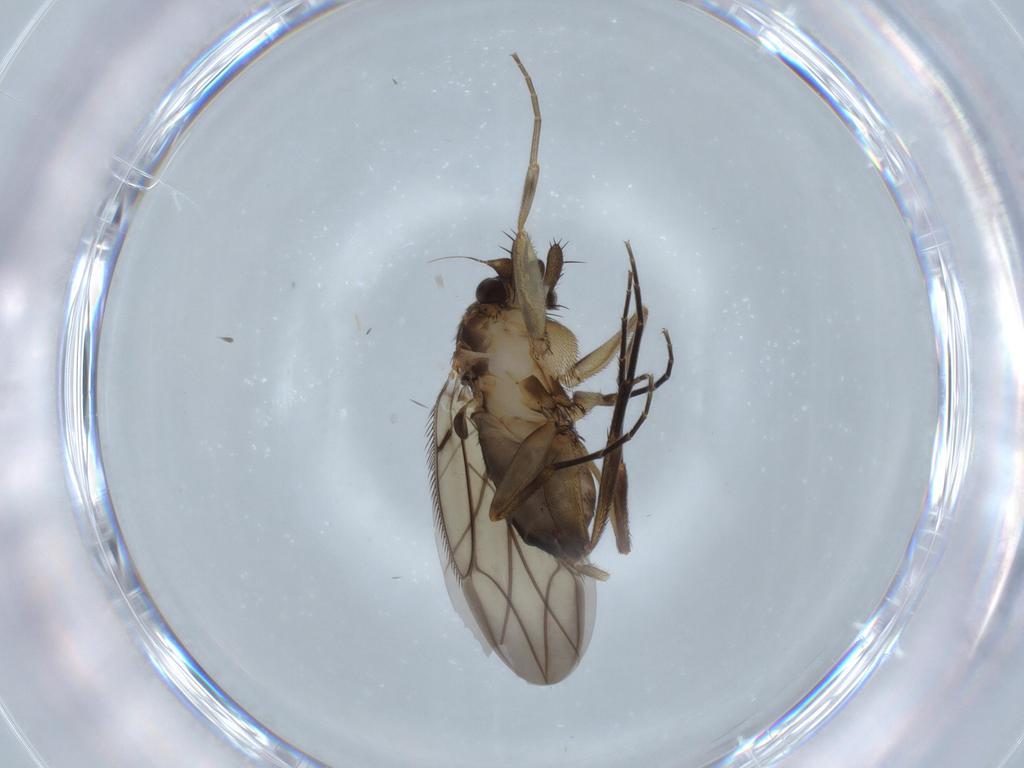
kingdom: Animalia
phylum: Arthropoda
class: Insecta
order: Diptera
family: Phoridae
